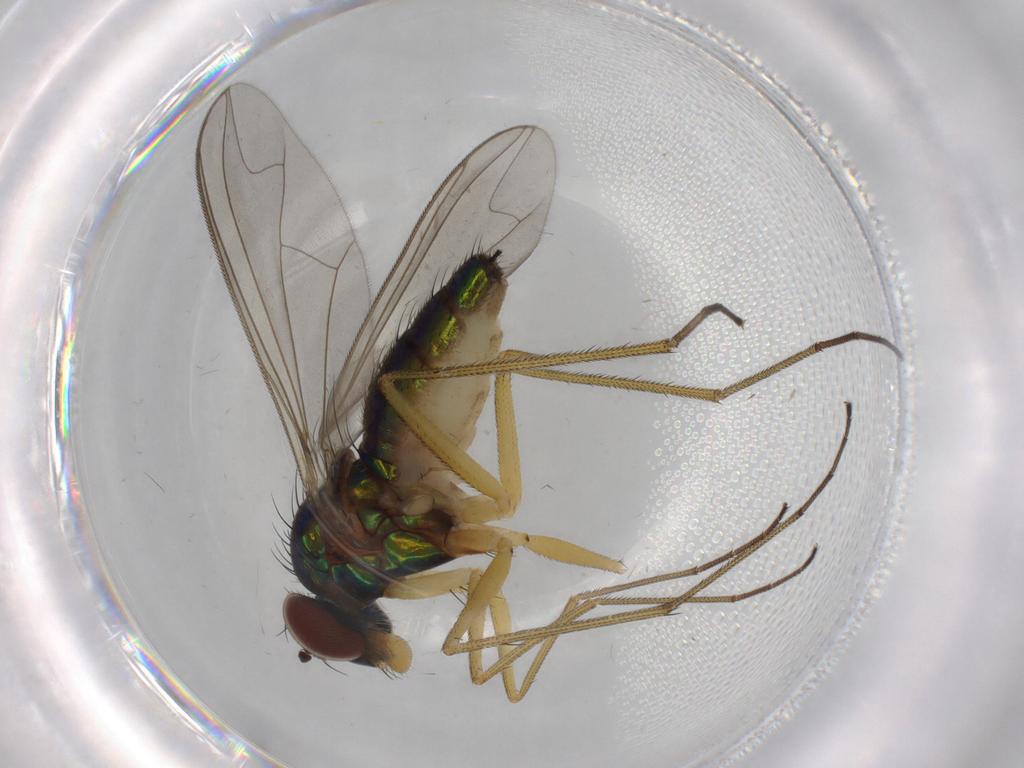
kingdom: Animalia
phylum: Arthropoda
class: Insecta
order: Diptera
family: Dolichopodidae
